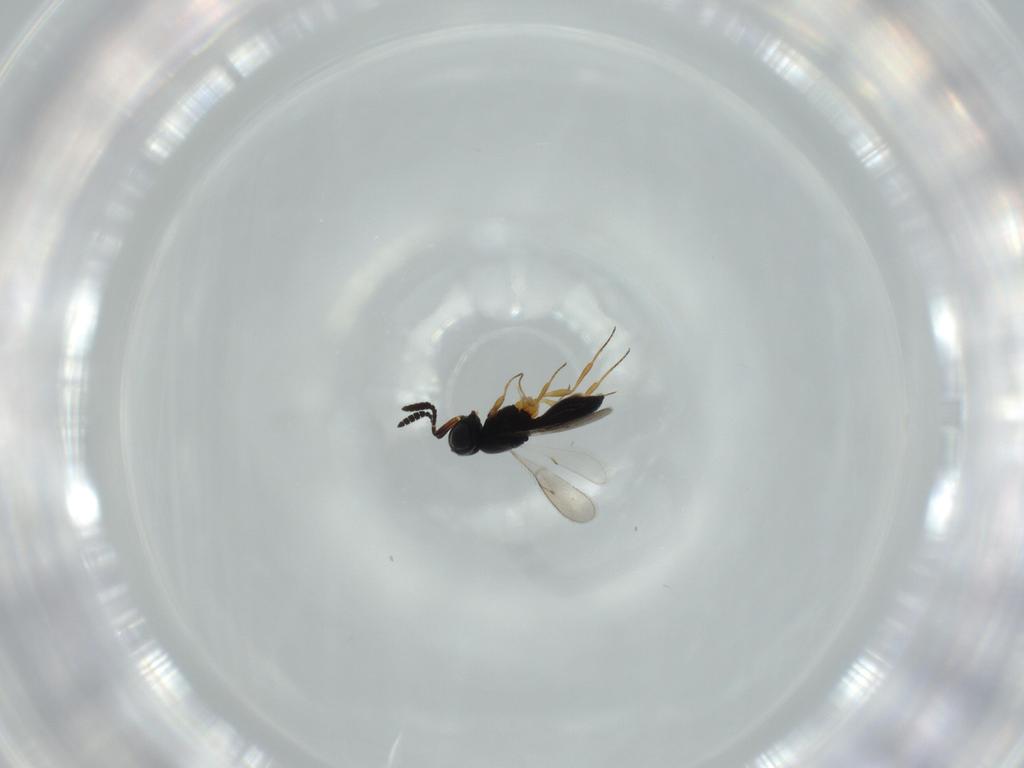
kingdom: Animalia
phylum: Arthropoda
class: Insecta
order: Hymenoptera
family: Scelionidae
